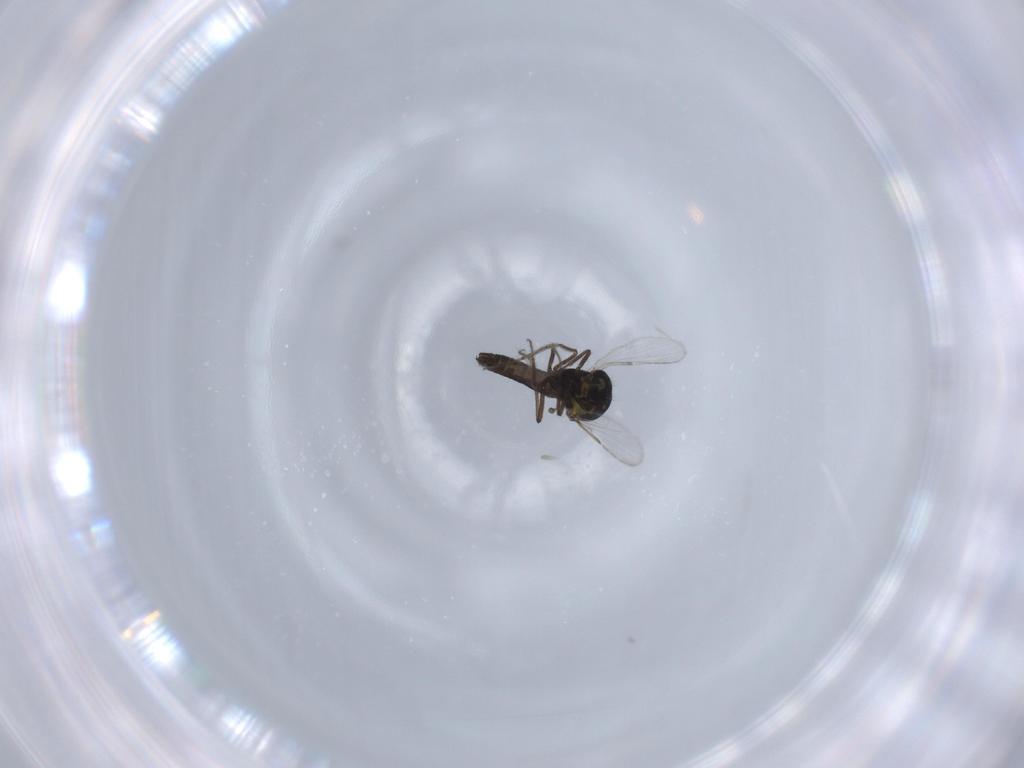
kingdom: Animalia
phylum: Arthropoda
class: Insecta
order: Diptera
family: Ceratopogonidae
